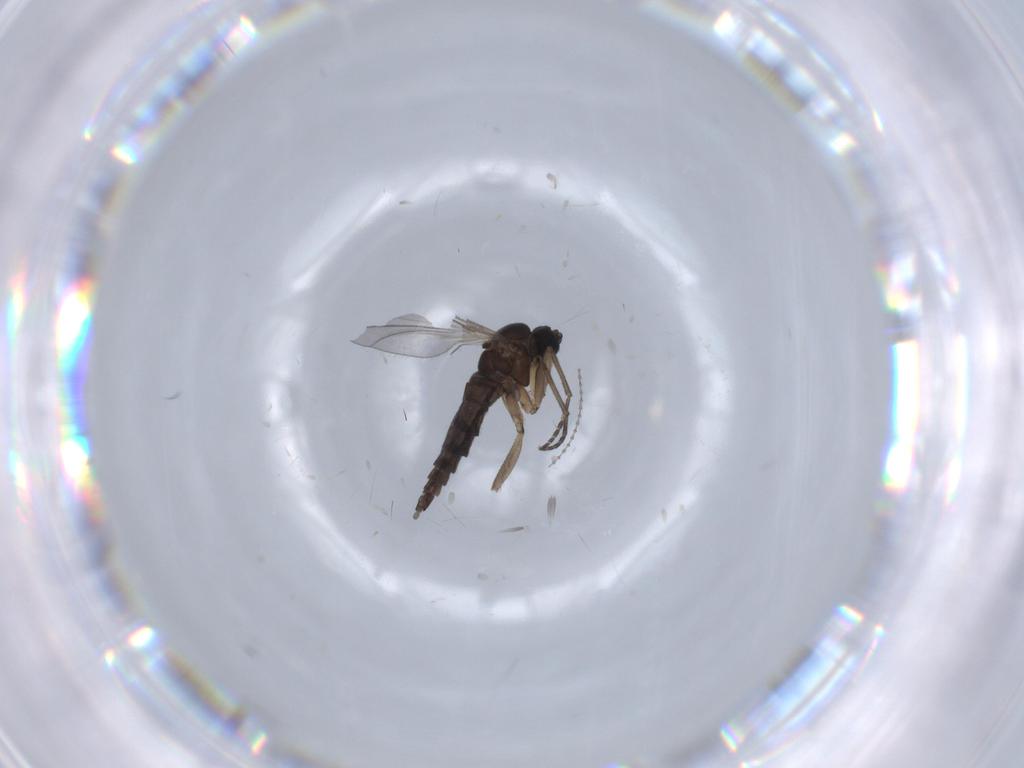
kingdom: Animalia
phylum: Arthropoda
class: Insecta
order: Diptera
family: Sciaridae
